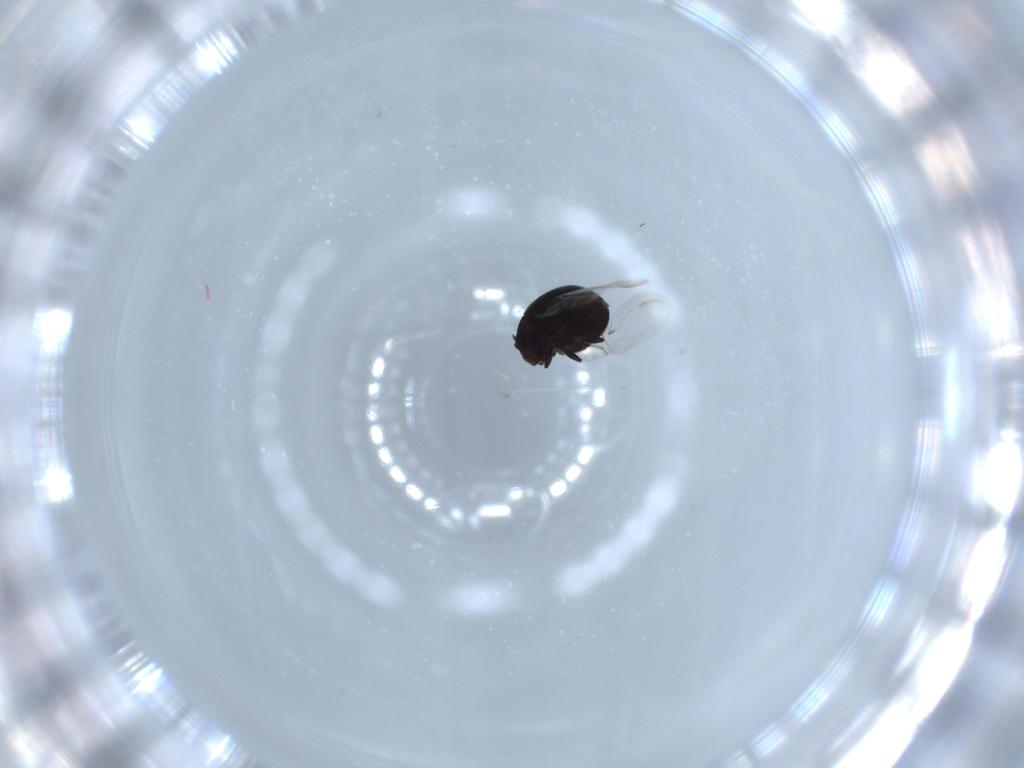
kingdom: Animalia
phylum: Arthropoda
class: Insecta
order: Coleoptera
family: Coccinellidae
